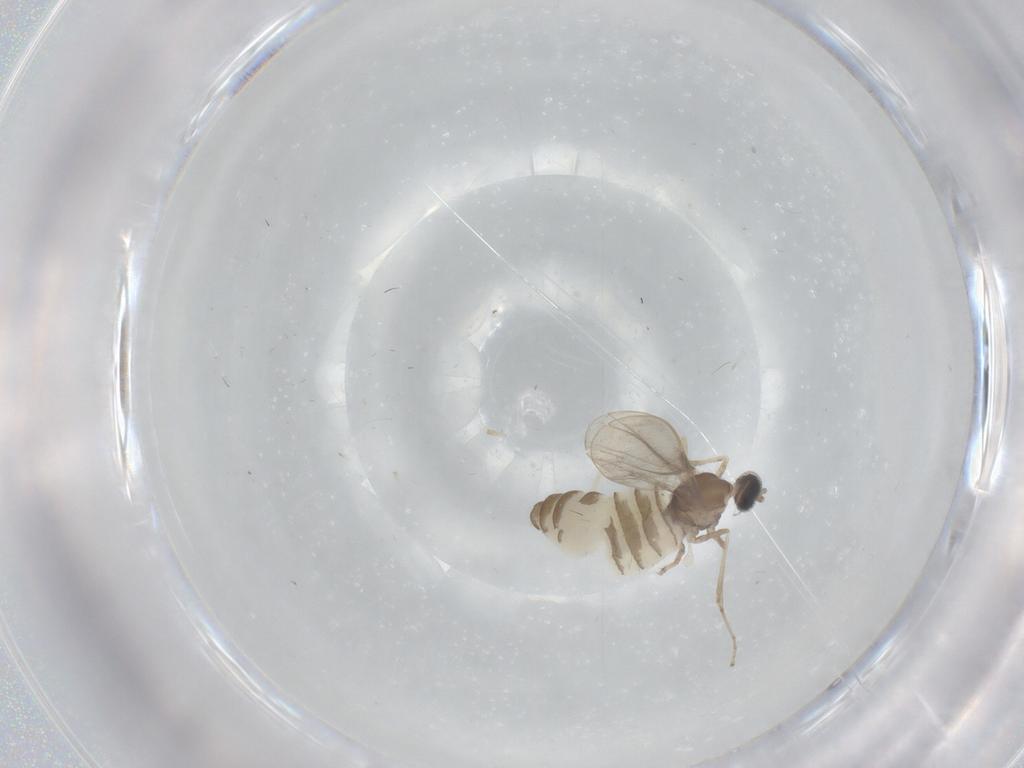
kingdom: Animalia
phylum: Arthropoda
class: Insecta
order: Diptera
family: Cecidomyiidae
